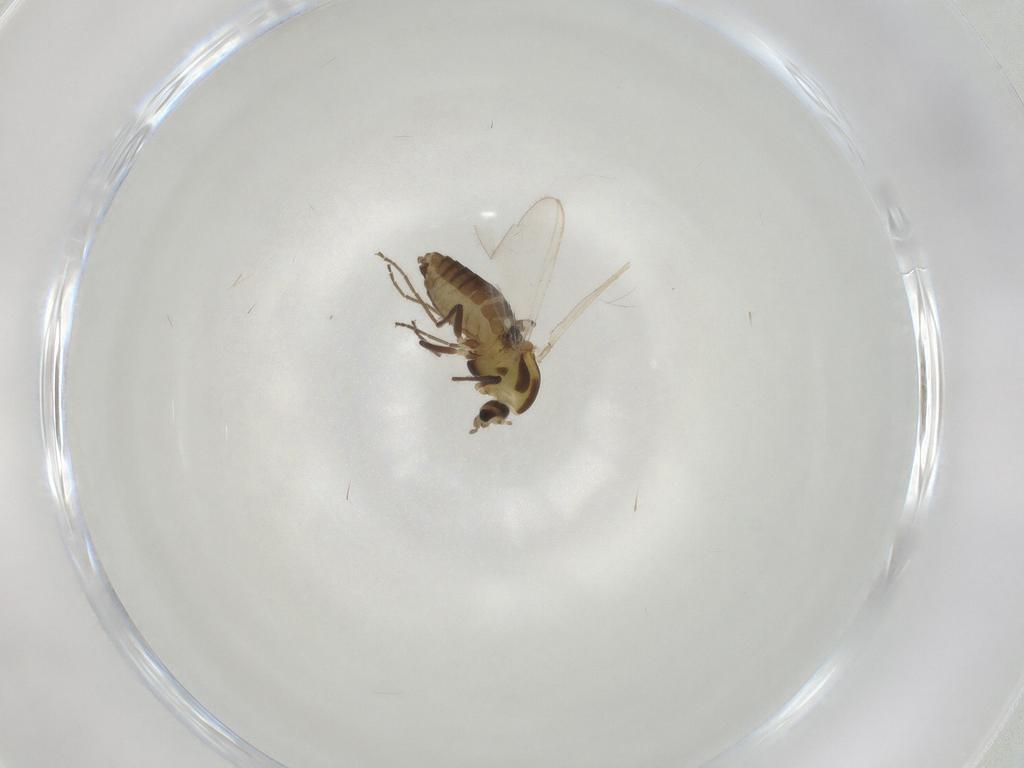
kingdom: Animalia
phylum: Arthropoda
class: Insecta
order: Diptera
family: Chironomidae
